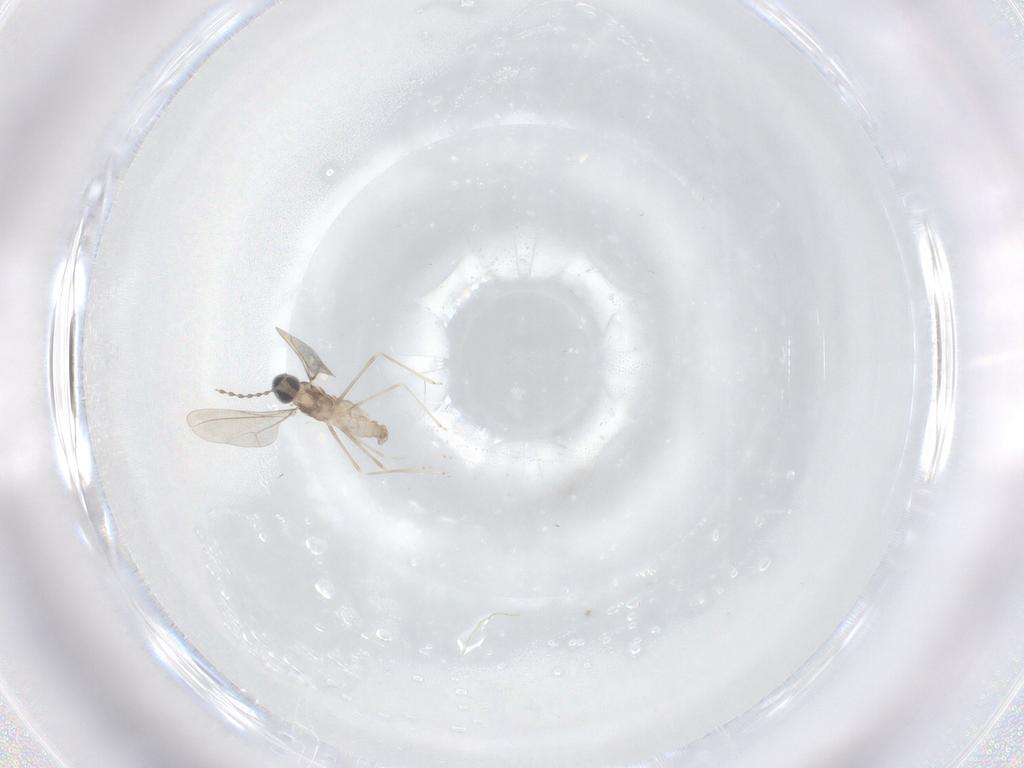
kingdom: Animalia
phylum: Arthropoda
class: Insecta
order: Diptera
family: Cecidomyiidae
